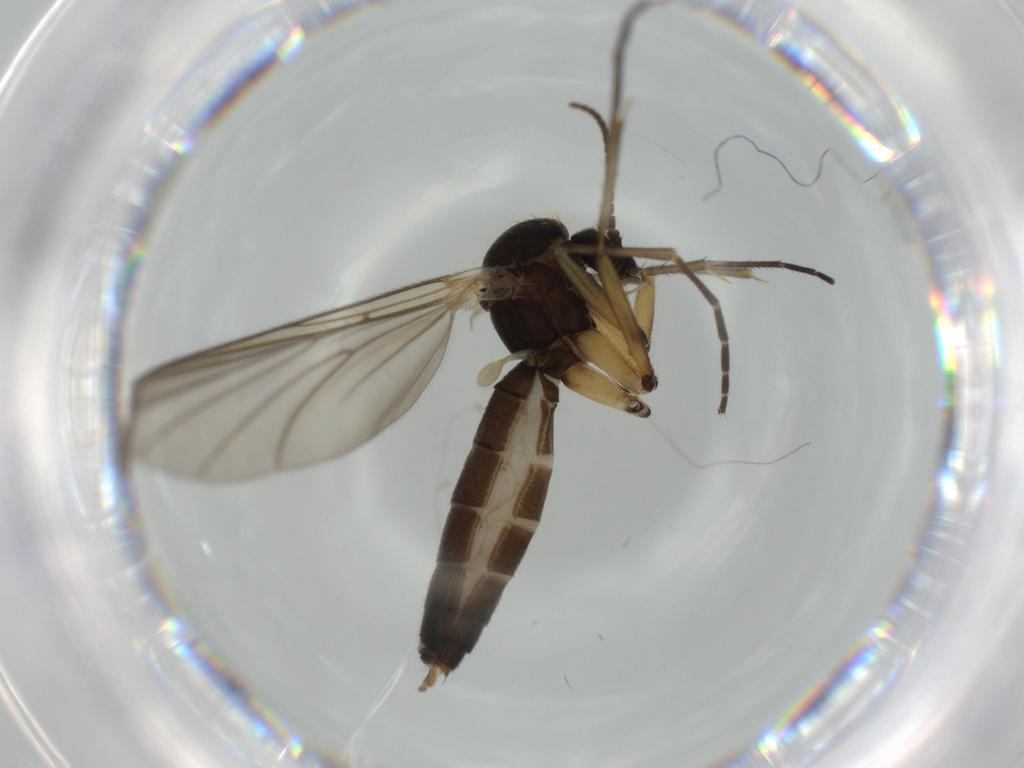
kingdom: Animalia
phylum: Arthropoda
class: Insecta
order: Diptera
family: Mycetophilidae
